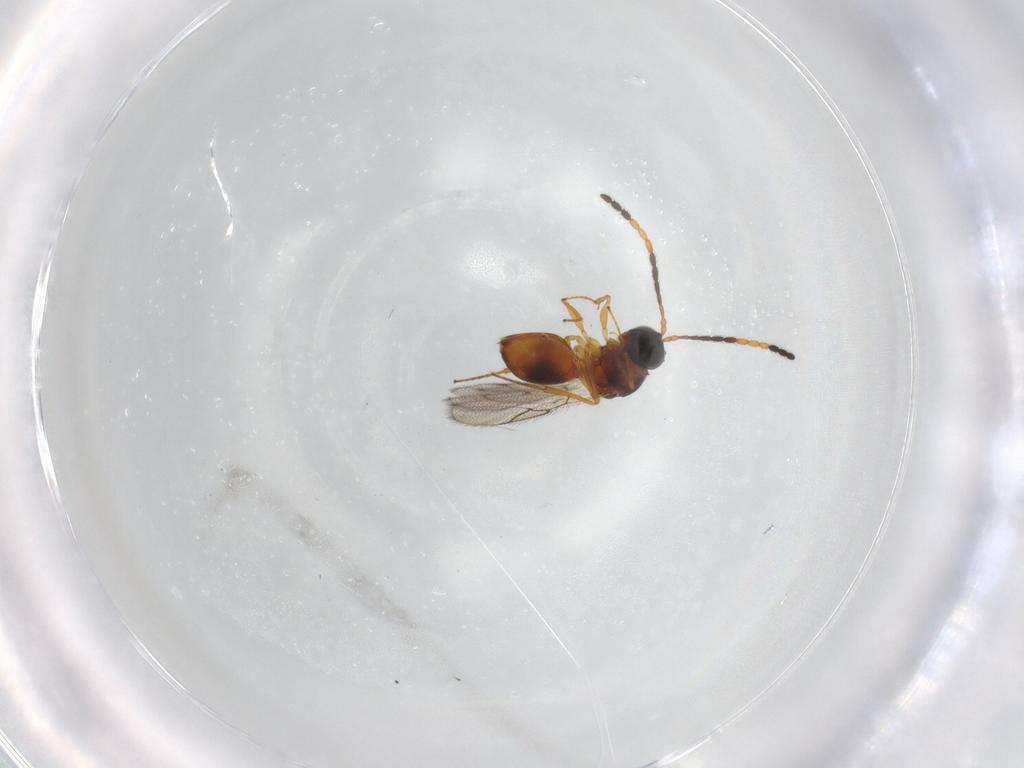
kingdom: Animalia
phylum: Arthropoda
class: Insecta
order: Hymenoptera
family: Figitidae
